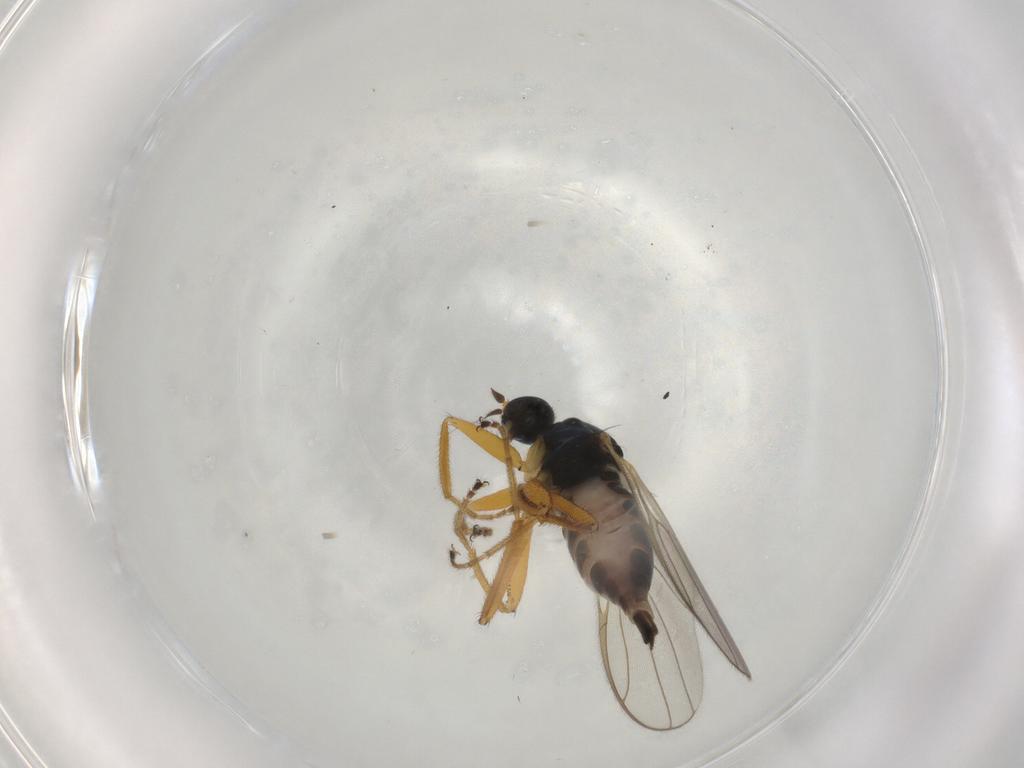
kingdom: Animalia
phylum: Arthropoda
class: Insecta
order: Diptera
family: Hybotidae
